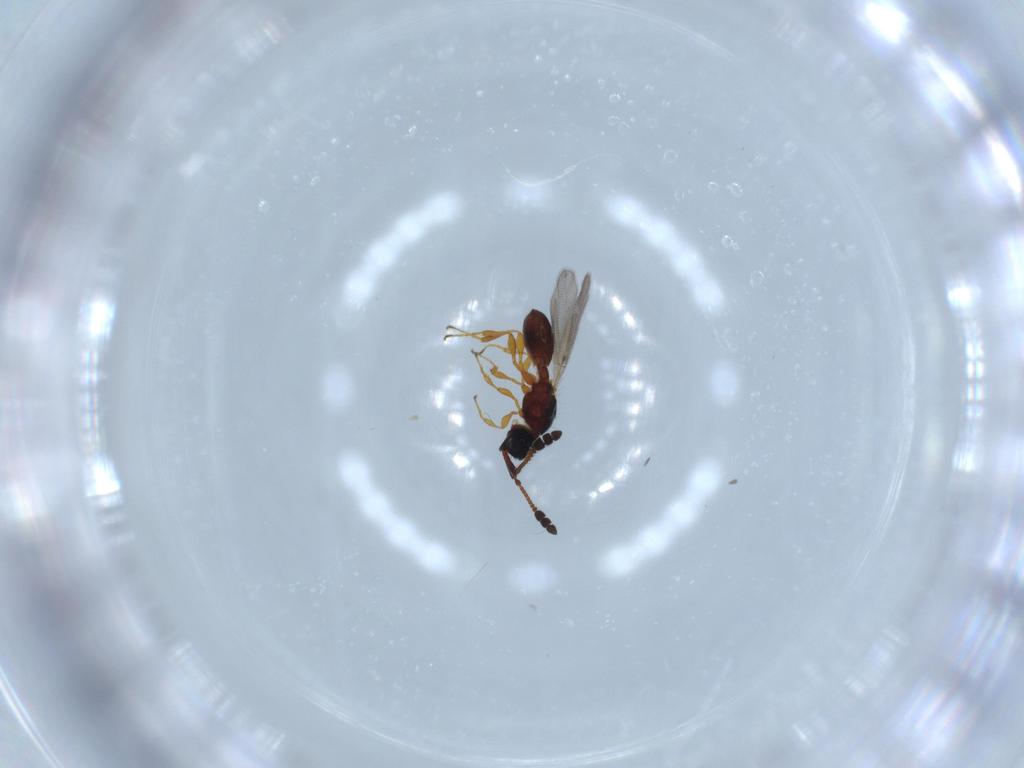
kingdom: Animalia
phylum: Arthropoda
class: Insecta
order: Hymenoptera
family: Diapriidae
